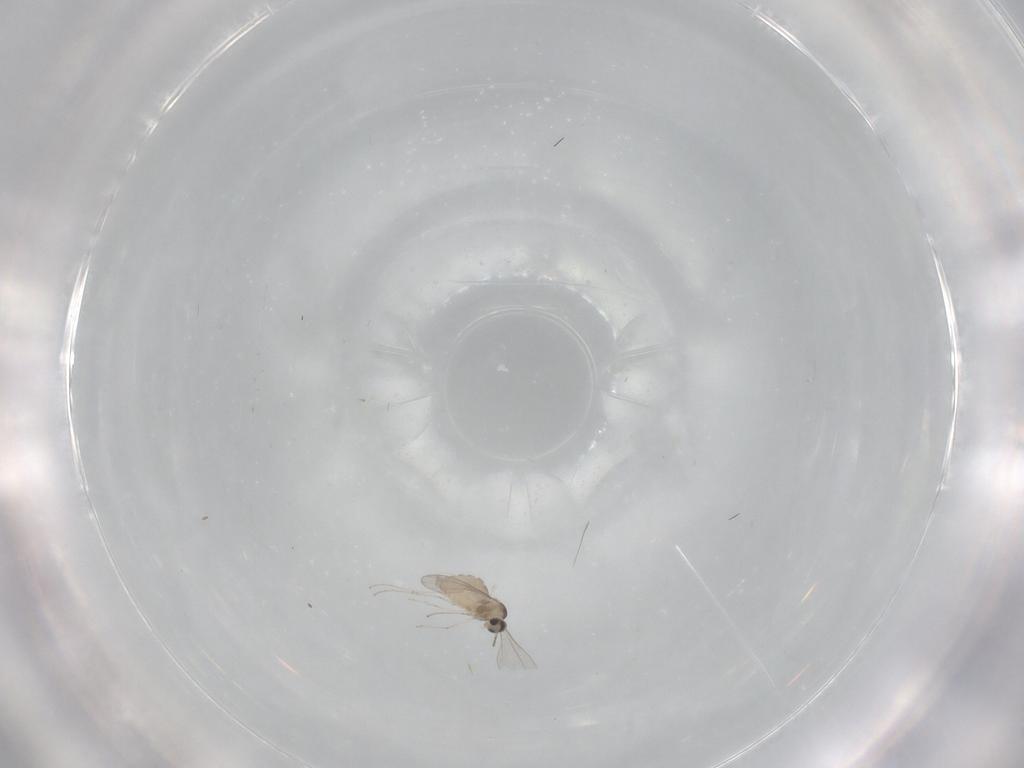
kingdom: Animalia
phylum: Arthropoda
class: Insecta
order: Diptera
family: Cecidomyiidae
